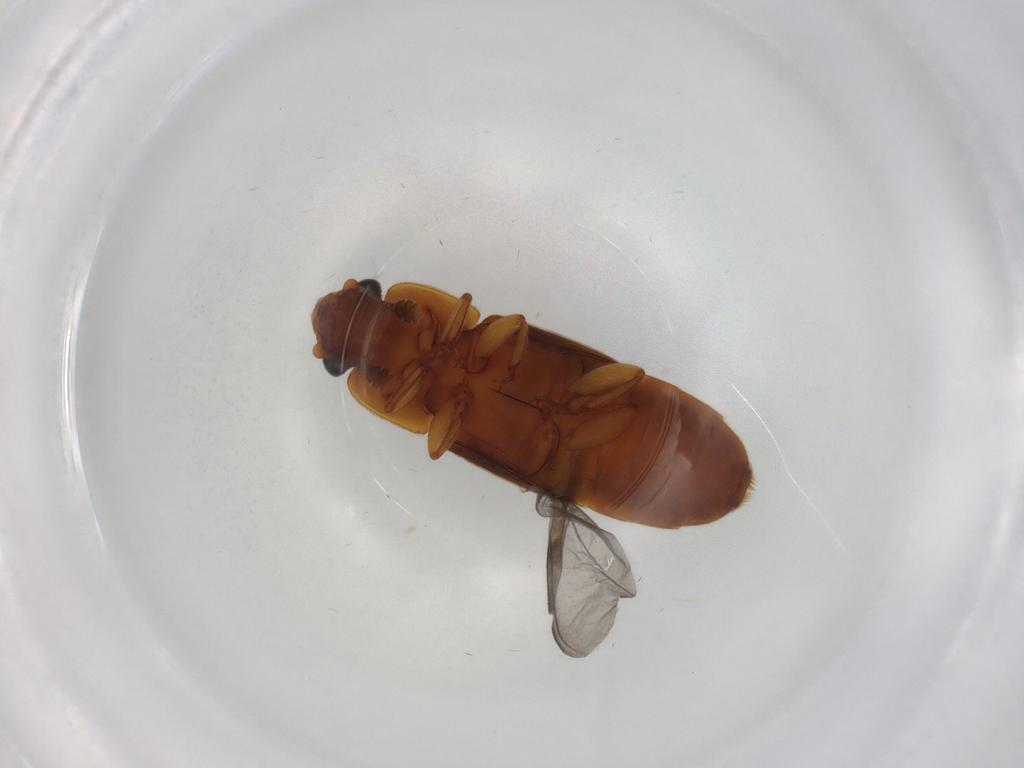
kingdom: Animalia
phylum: Arthropoda
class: Insecta
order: Coleoptera
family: Nitidulidae
